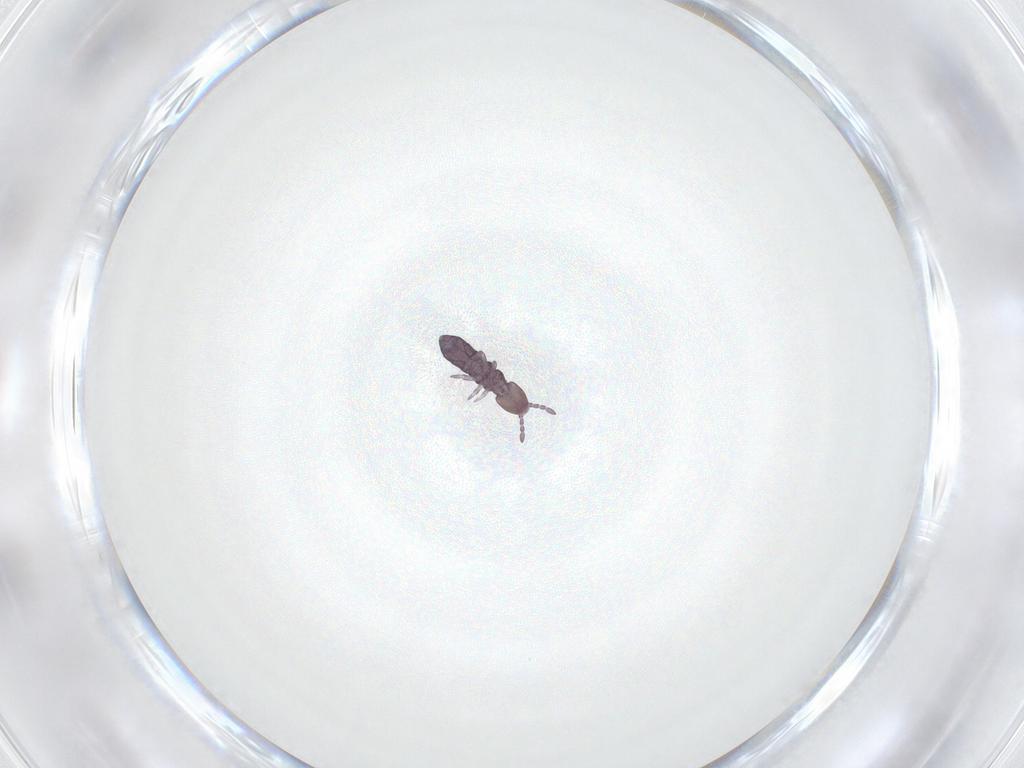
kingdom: Animalia
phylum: Arthropoda
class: Collembola
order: Entomobryomorpha
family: Isotomidae
